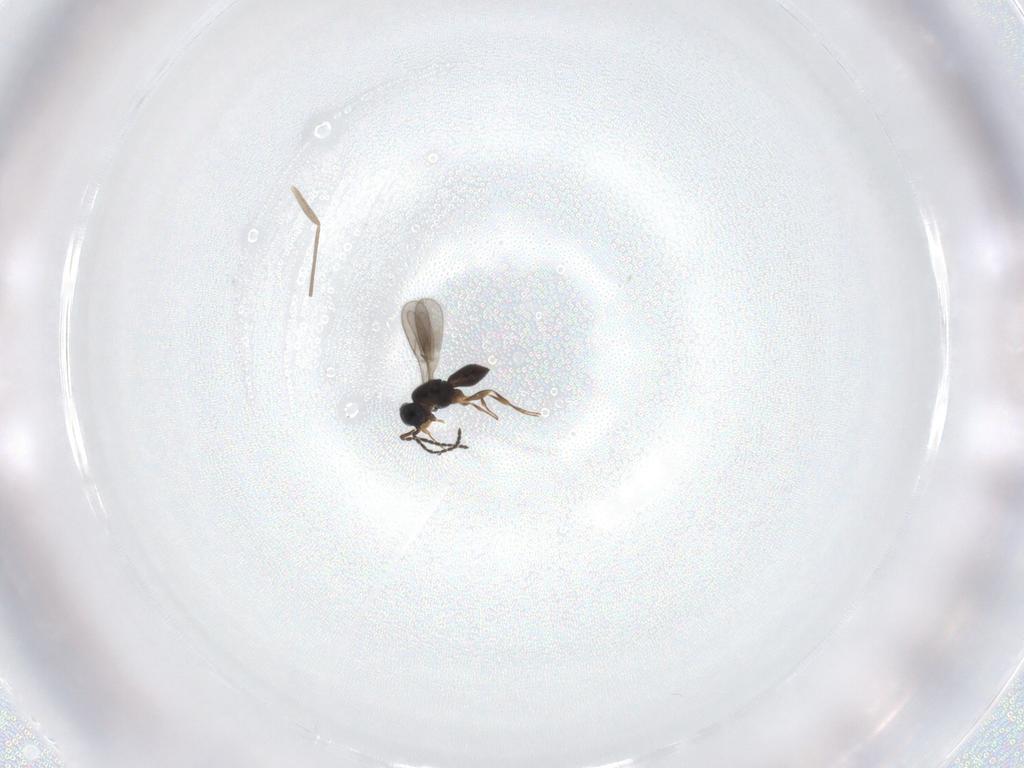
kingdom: Animalia
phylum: Arthropoda
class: Insecta
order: Hymenoptera
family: Scelionidae
